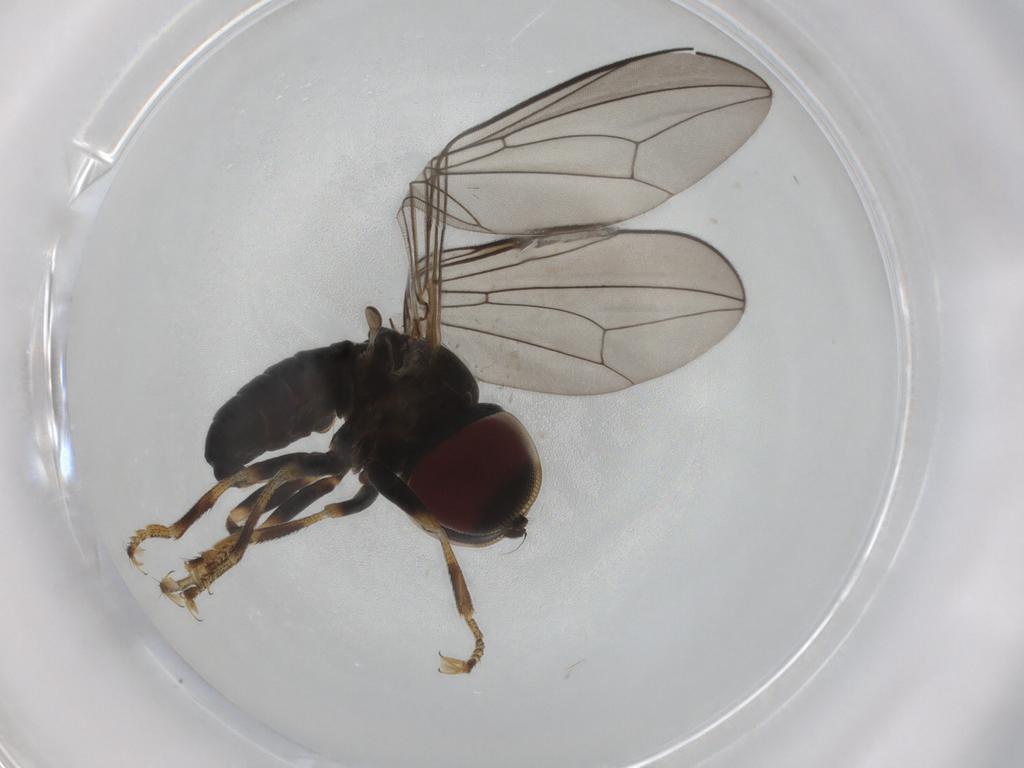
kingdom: Animalia
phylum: Arthropoda
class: Insecta
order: Diptera
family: Pipunculidae
